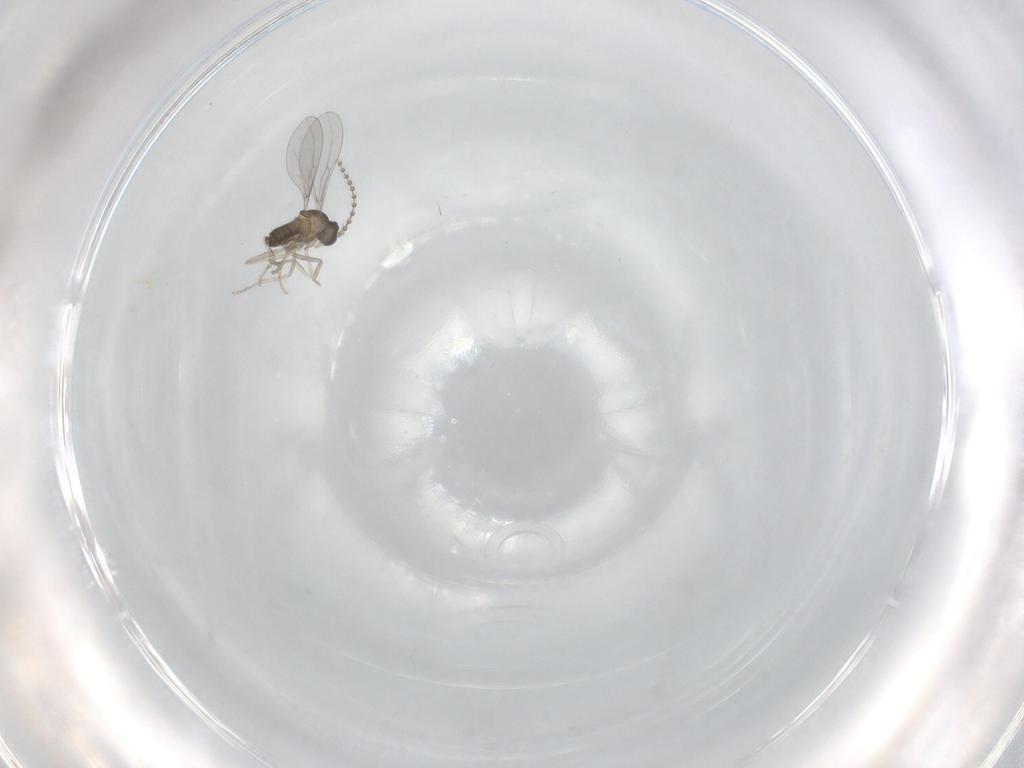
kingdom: Animalia
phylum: Arthropoda
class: Insecta
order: Diptera
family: Cecidomyiidae
